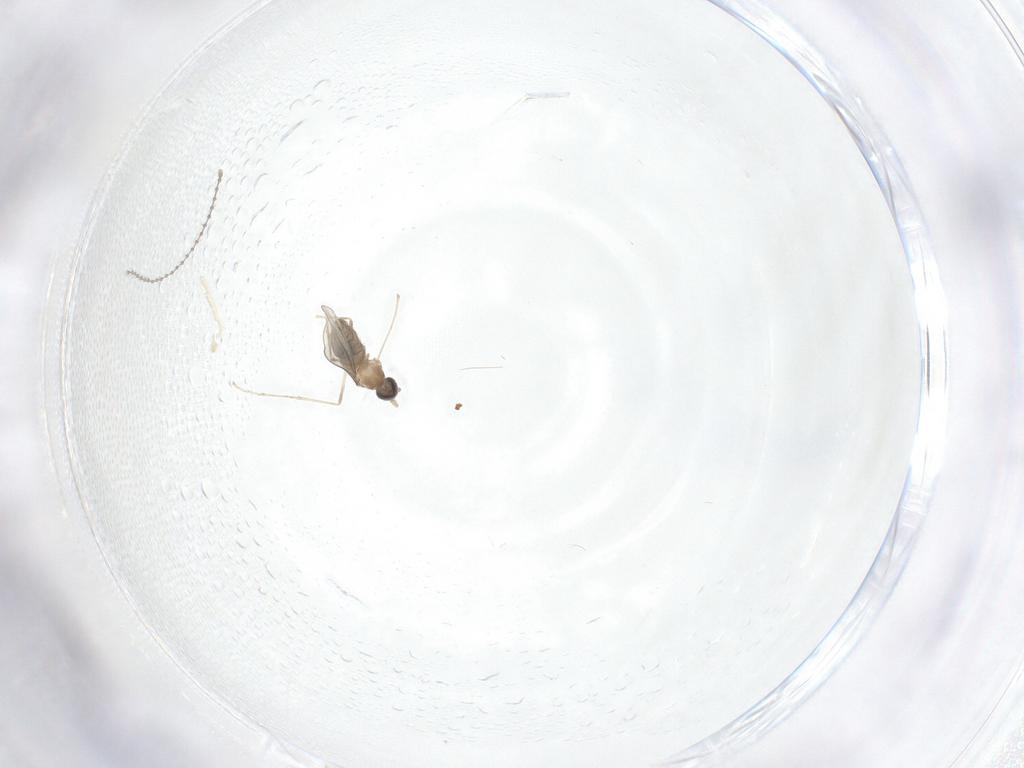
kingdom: Animalia
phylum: Arthropoda
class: Insecta
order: Diptera
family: Cecidomyiidae
